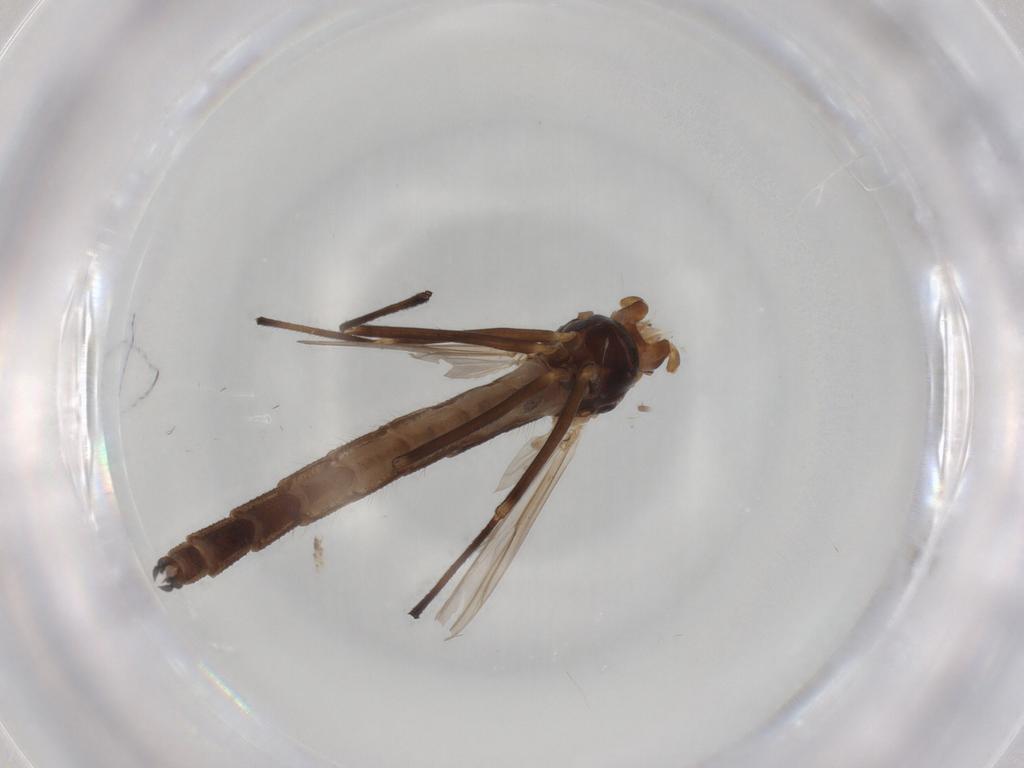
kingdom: Animalia
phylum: Arthropoda
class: Insecta
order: Diptera
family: Chironomidae
